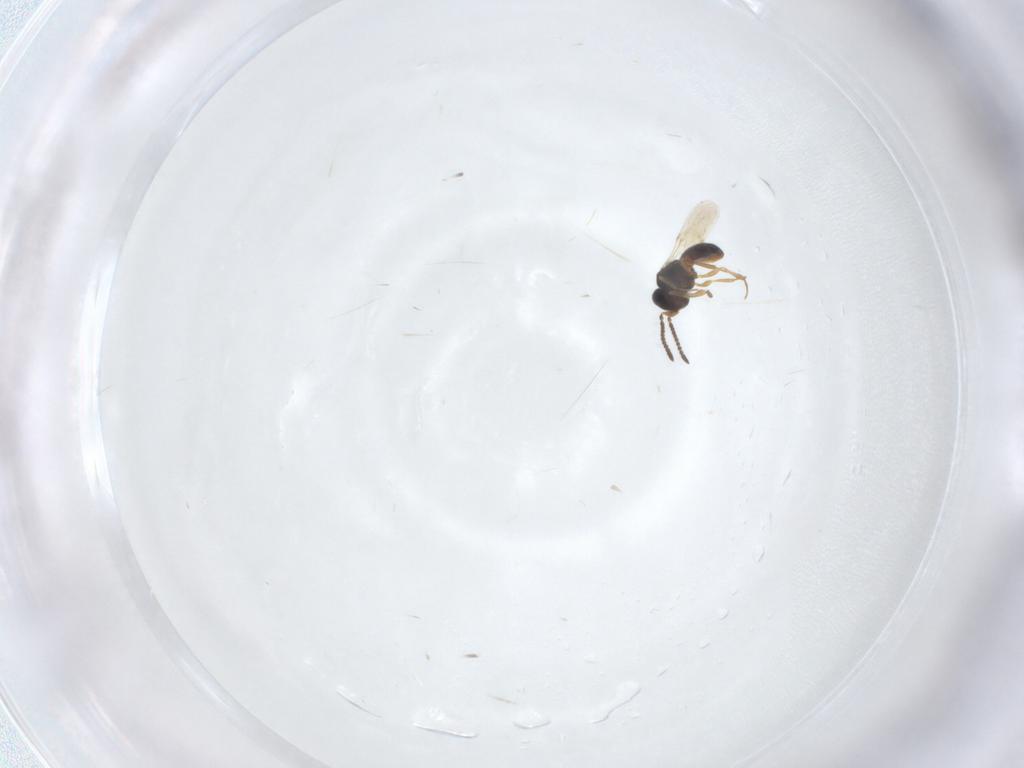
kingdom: Animalia
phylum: Arthropoda
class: Insecta
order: Hymenoptera
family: Scelionidae
